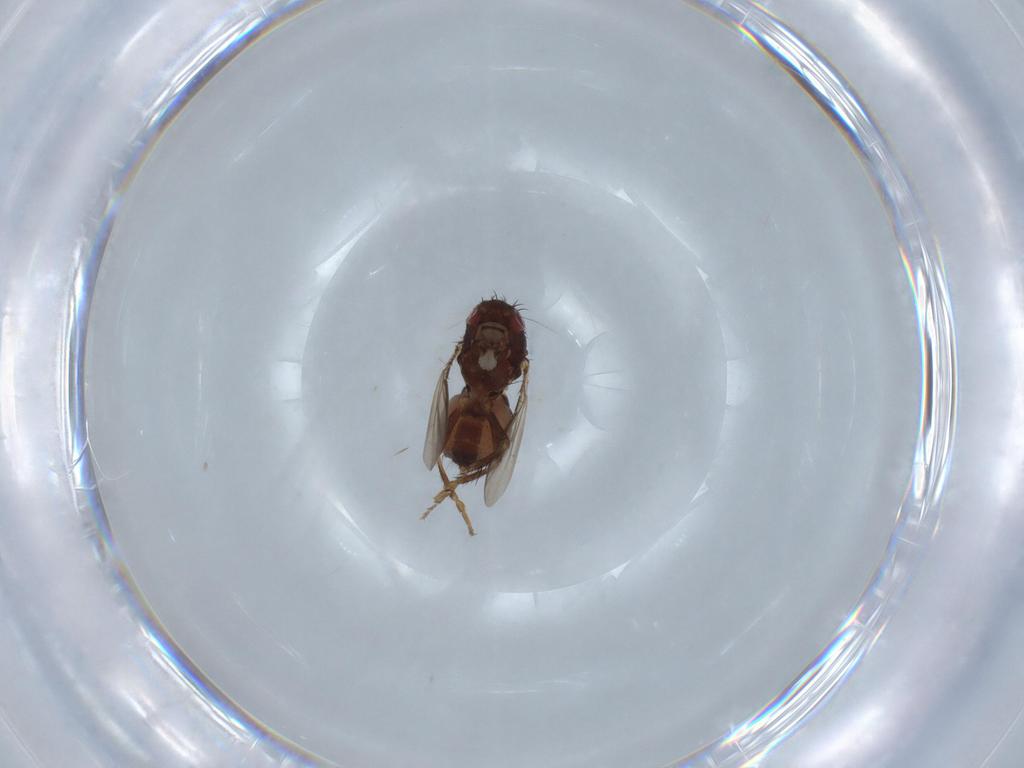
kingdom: Animalia
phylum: Arthropoda
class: Insecta
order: Diptera
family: Sphaeroceridae
